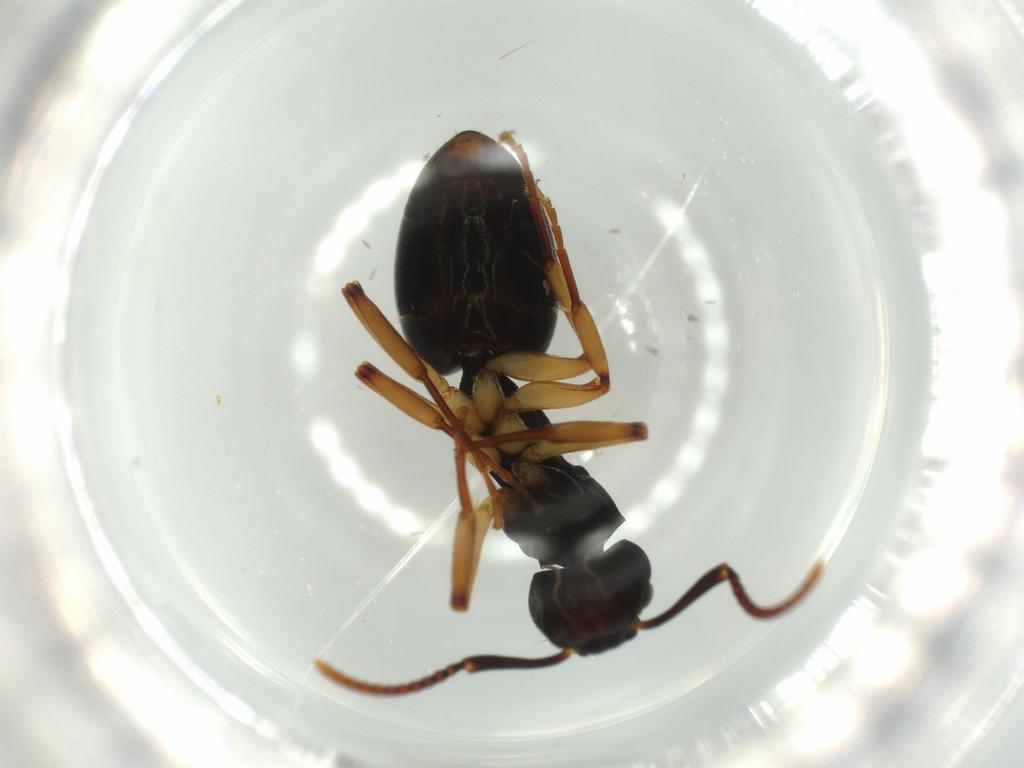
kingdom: Animalia
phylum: Arthropoda
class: Insecta
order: Hymenoptera
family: Formicidae
